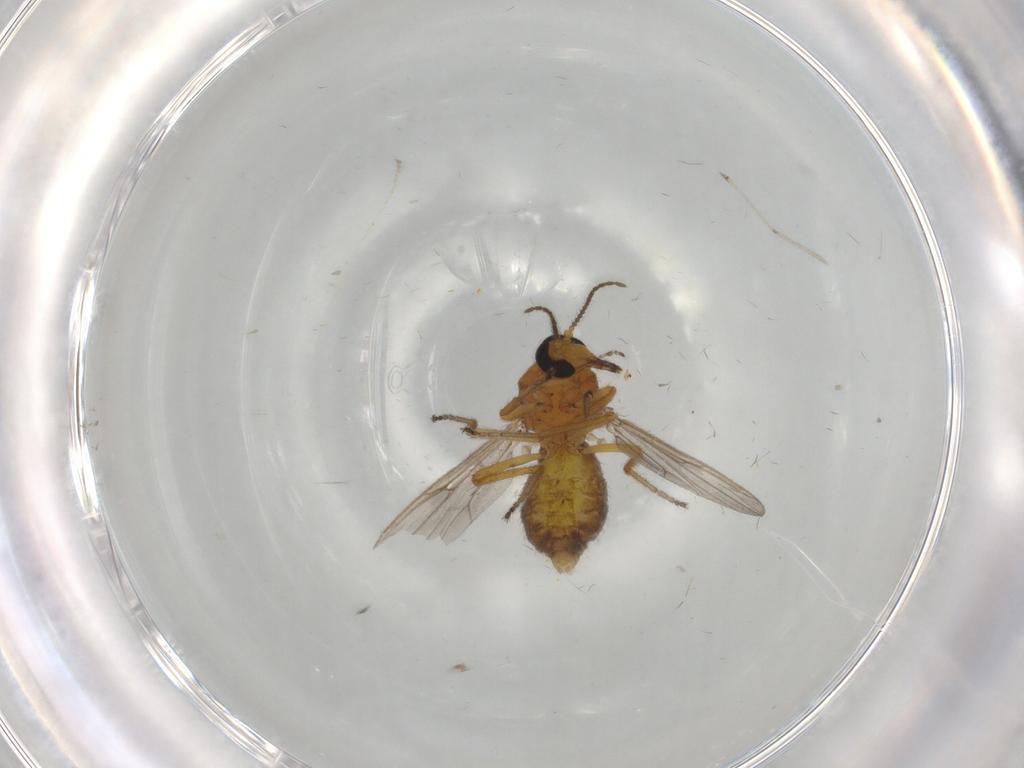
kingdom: Animalia
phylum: Arthropoda
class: Insecta
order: Diptera
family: Ceratopogonidae
